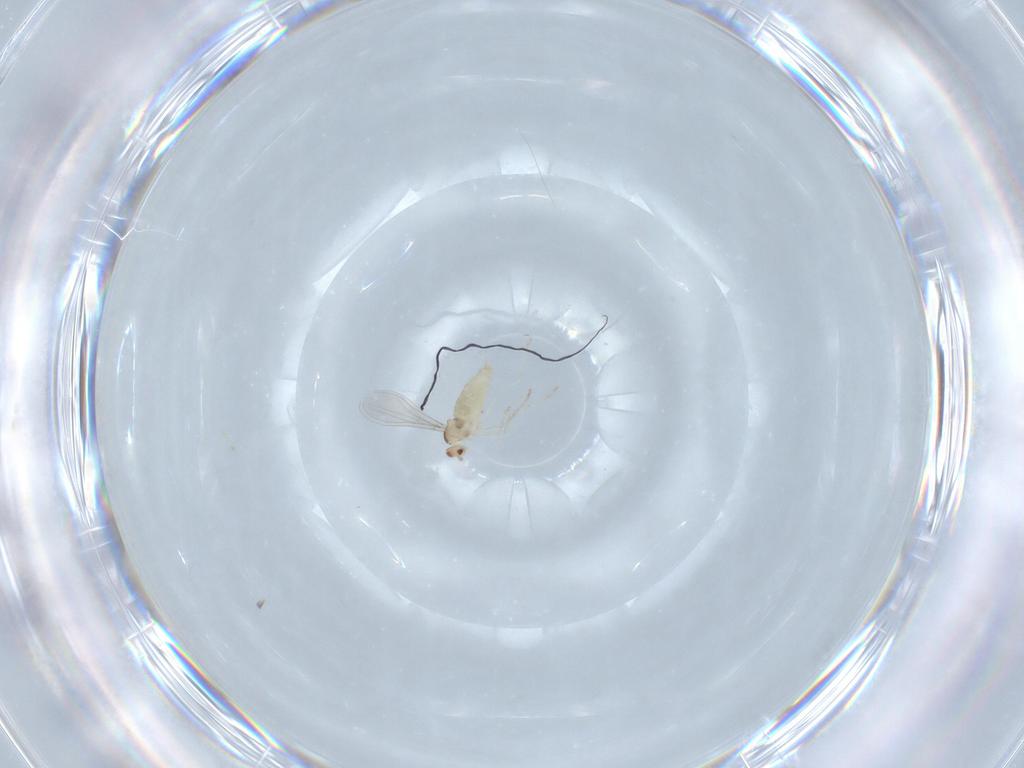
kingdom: Animalia
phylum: Arthropoda
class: Insecta
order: Diptera
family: Cecidomyiidae
